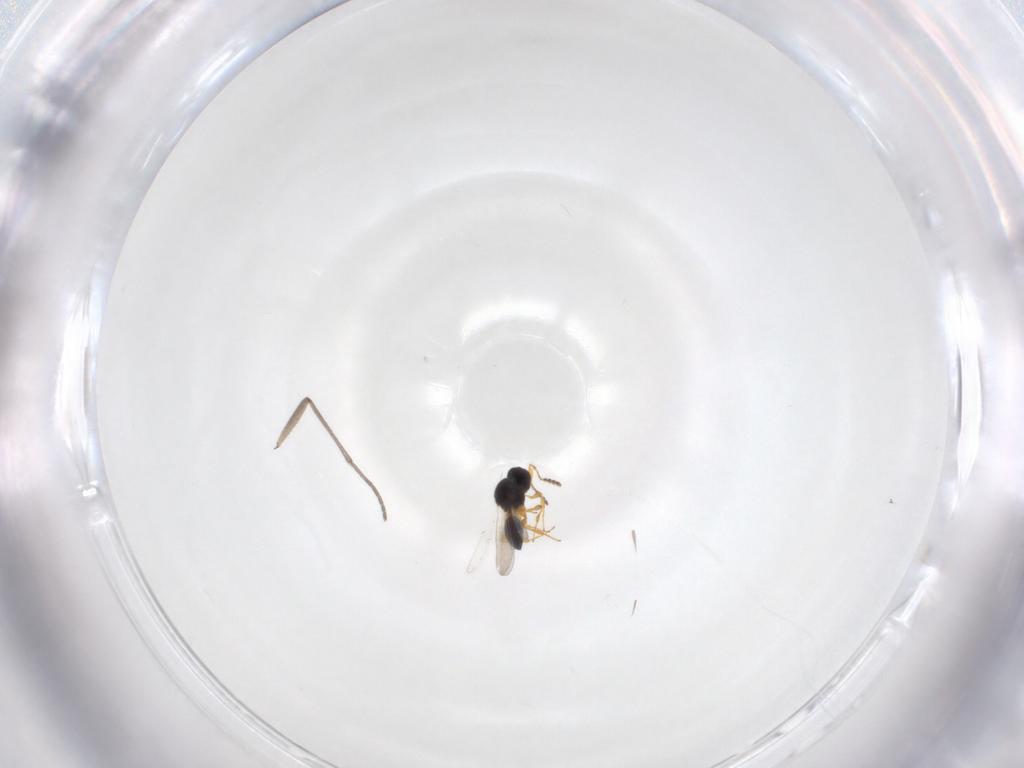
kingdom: Animalia
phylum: Arthropoda
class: Insecta
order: Hymenoptera
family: Platygastridae
